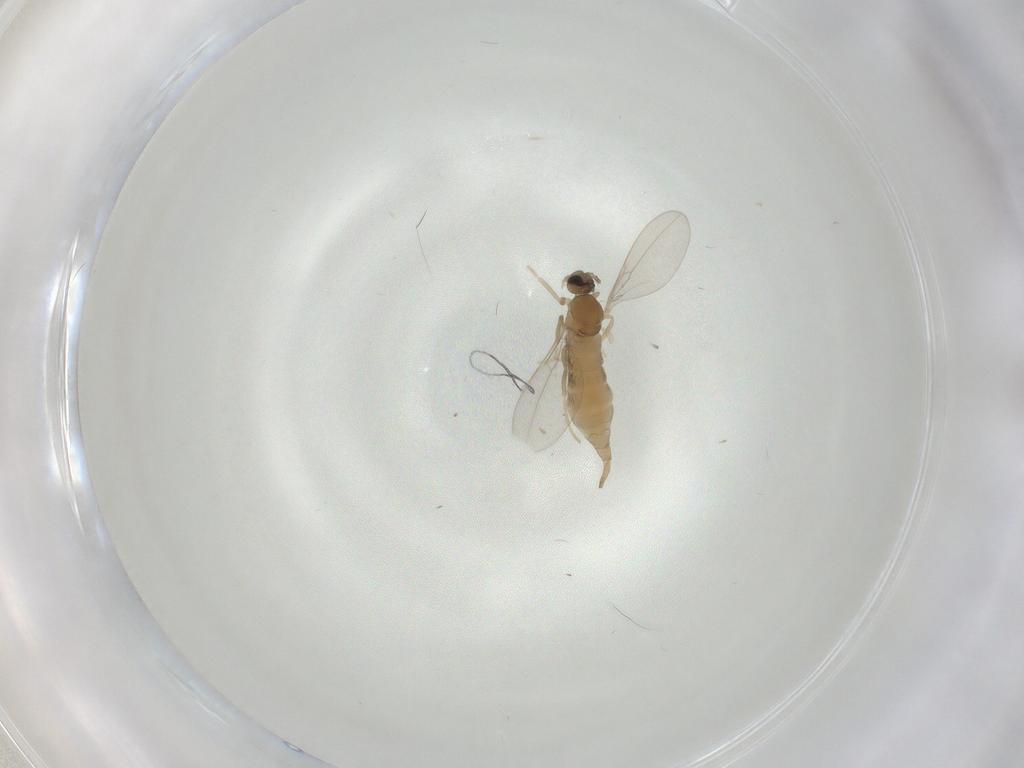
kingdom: Animalia
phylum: Arthropoda
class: Insecta
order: Diptera
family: Cecidomyiidae
